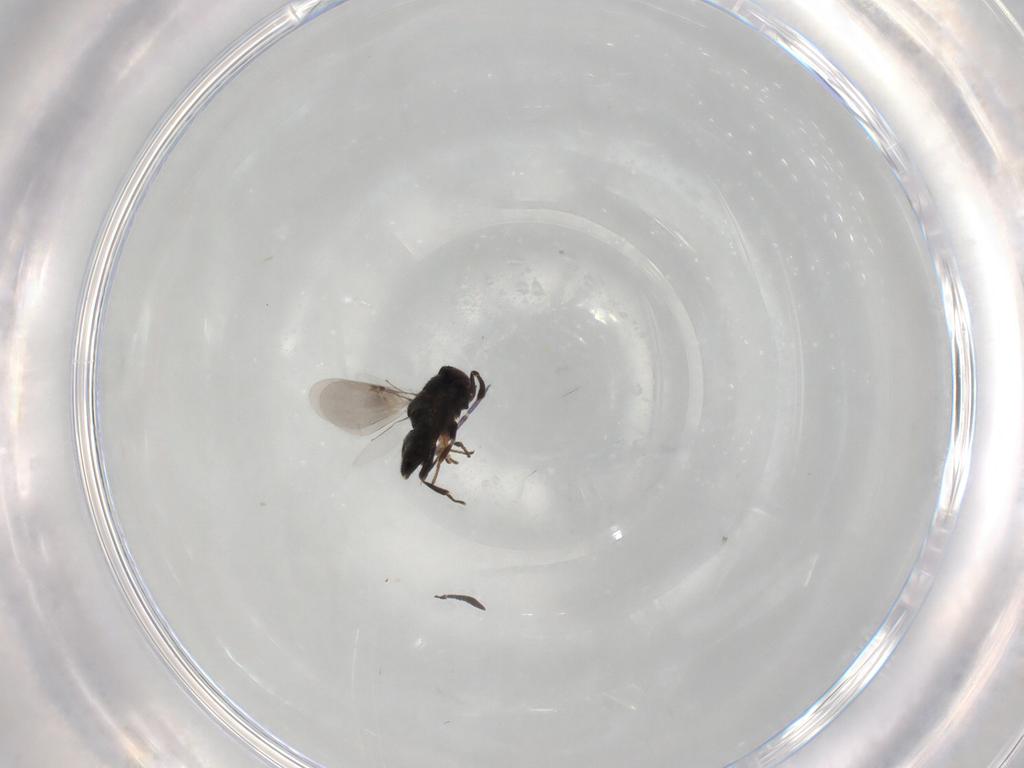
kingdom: Animalia
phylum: Arthropoda
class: Insecta
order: Hymenoptera
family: Encyrtidae
